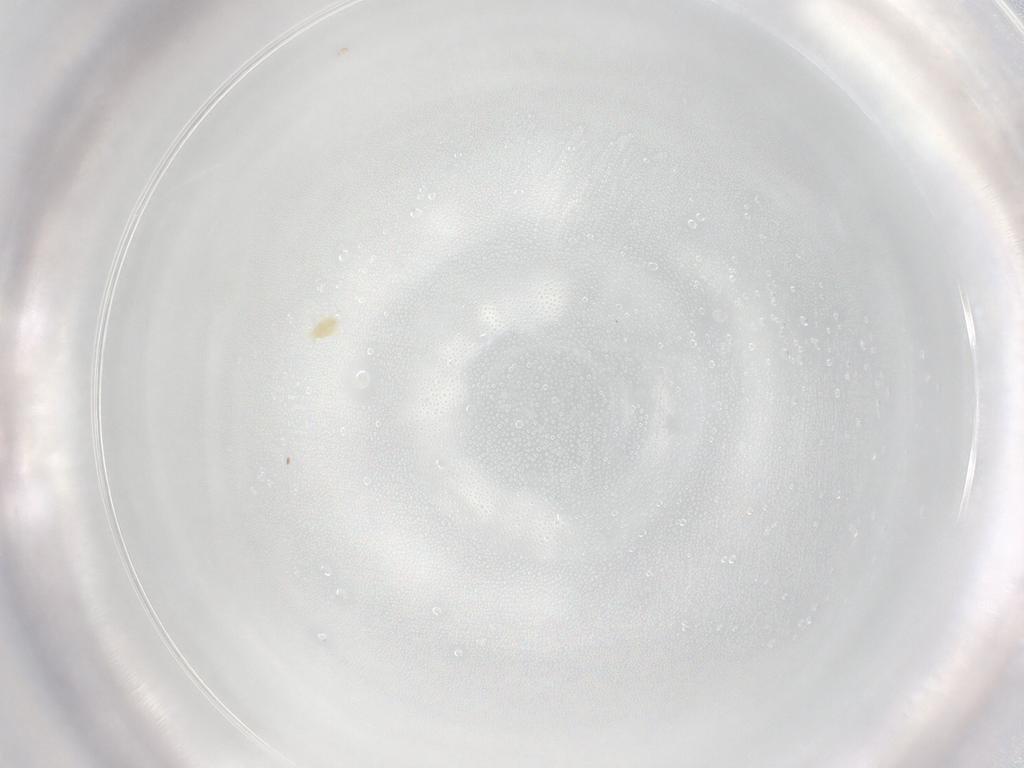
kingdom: Animalia
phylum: Arthropoda
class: Arachnida
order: Trombidiformes
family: Eupodidae
